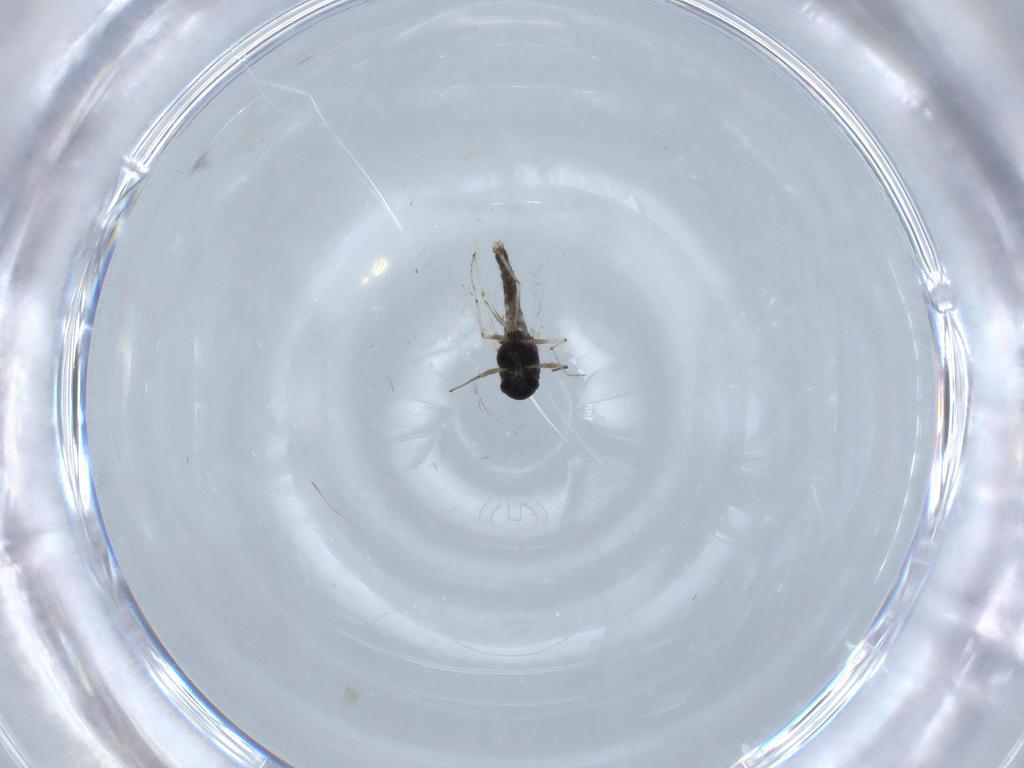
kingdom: Animalia
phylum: Arthropoda
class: Insecta
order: Diptera
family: Chironomidae
